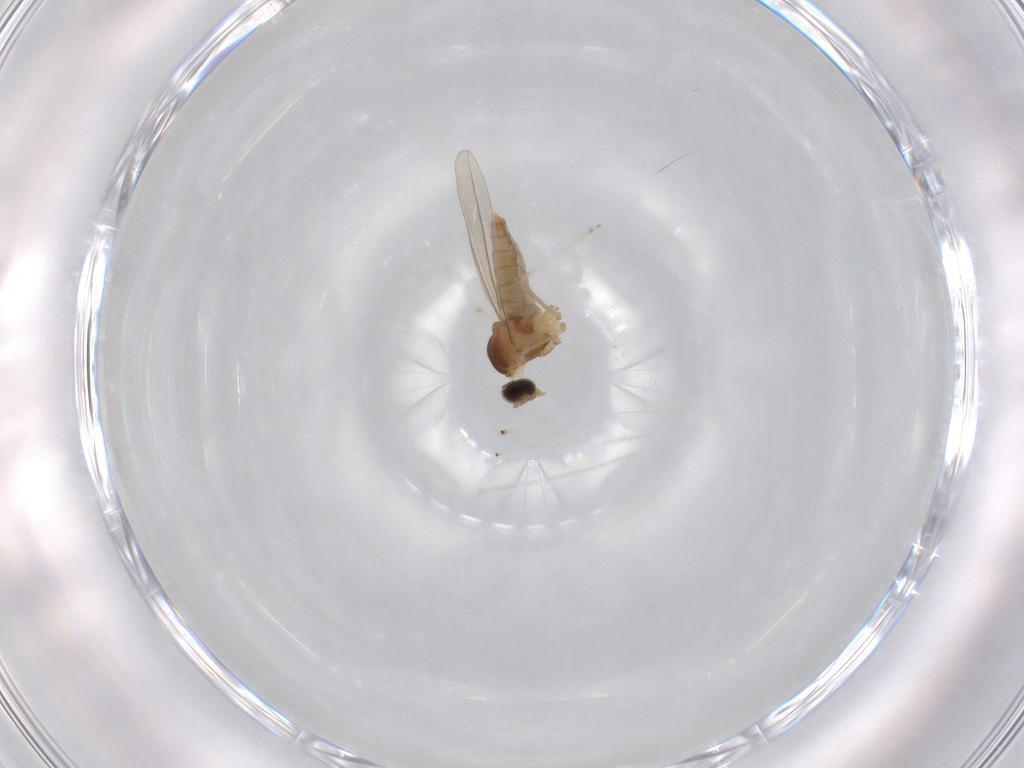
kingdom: Animalia
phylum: Arthropoda
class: Insecta
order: Diptera
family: Cecidomyiidae
